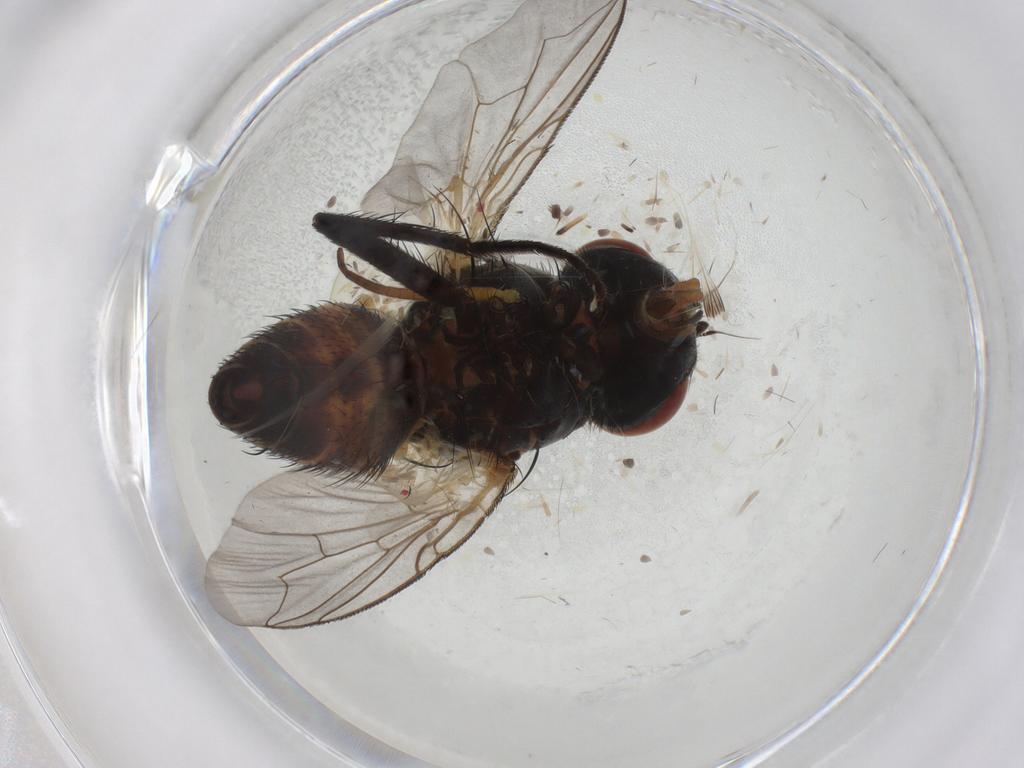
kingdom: Animalia
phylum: Arthropoda
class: Insecta
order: Diptera
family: Keroplatidae
